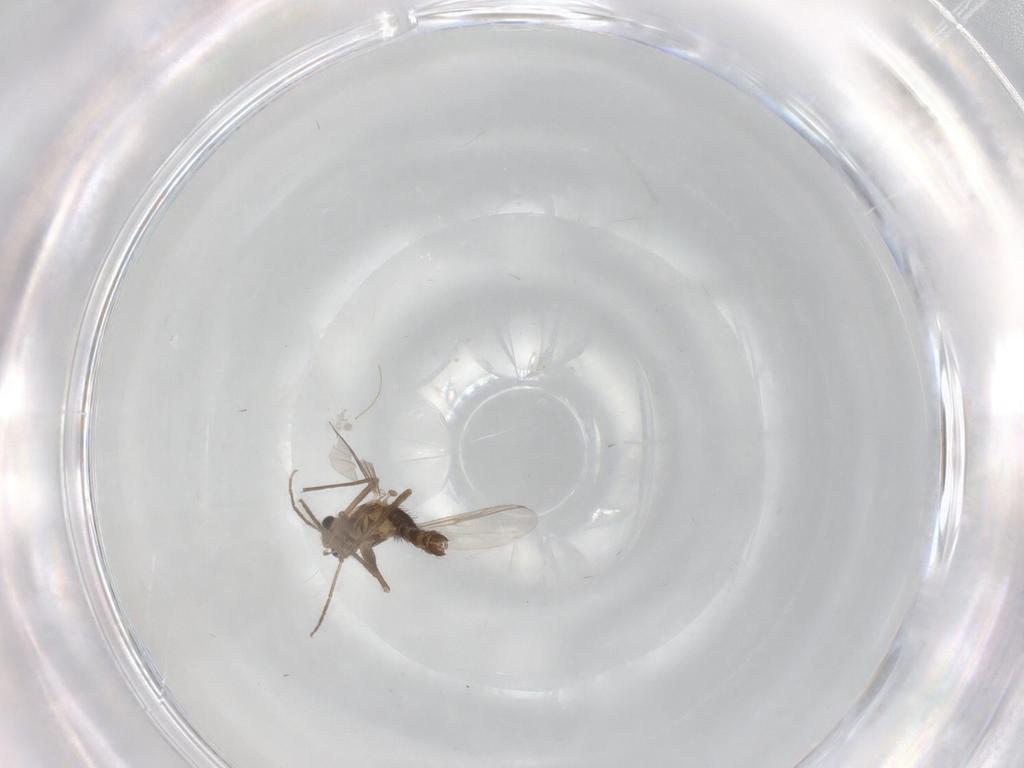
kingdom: Animalia
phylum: Arthropoda
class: Insecta
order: Diptera
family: Chironomidae
